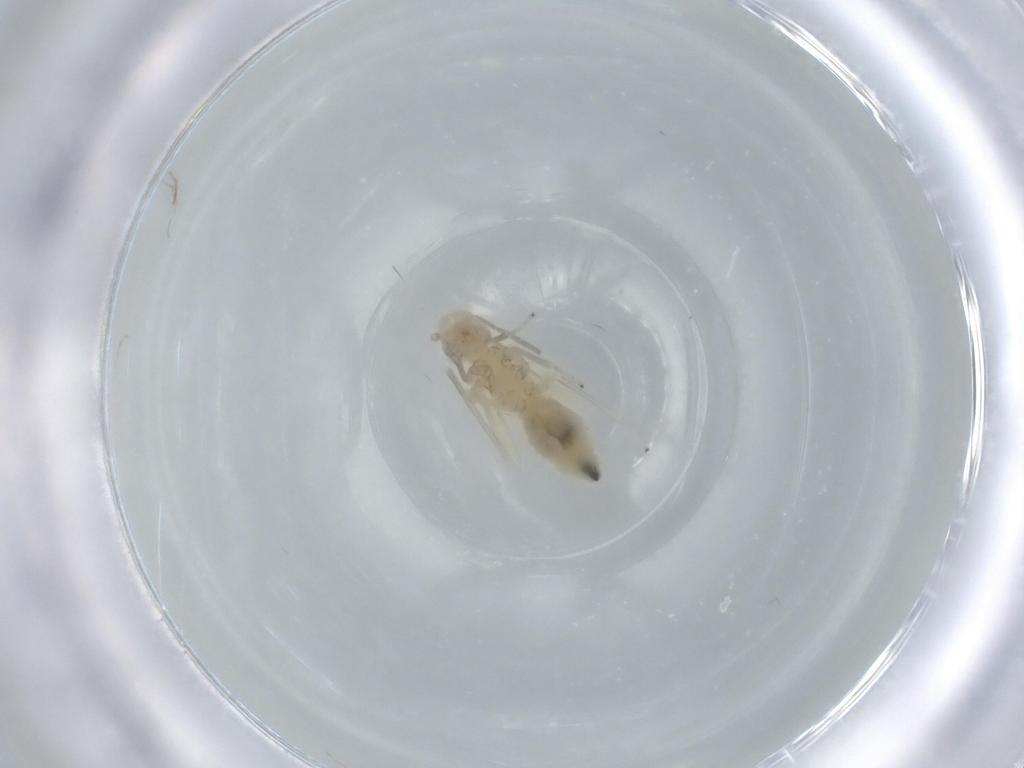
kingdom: Animalia
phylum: Arthropoda
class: Insecta
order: Psocodea
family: Caeciliusidae
